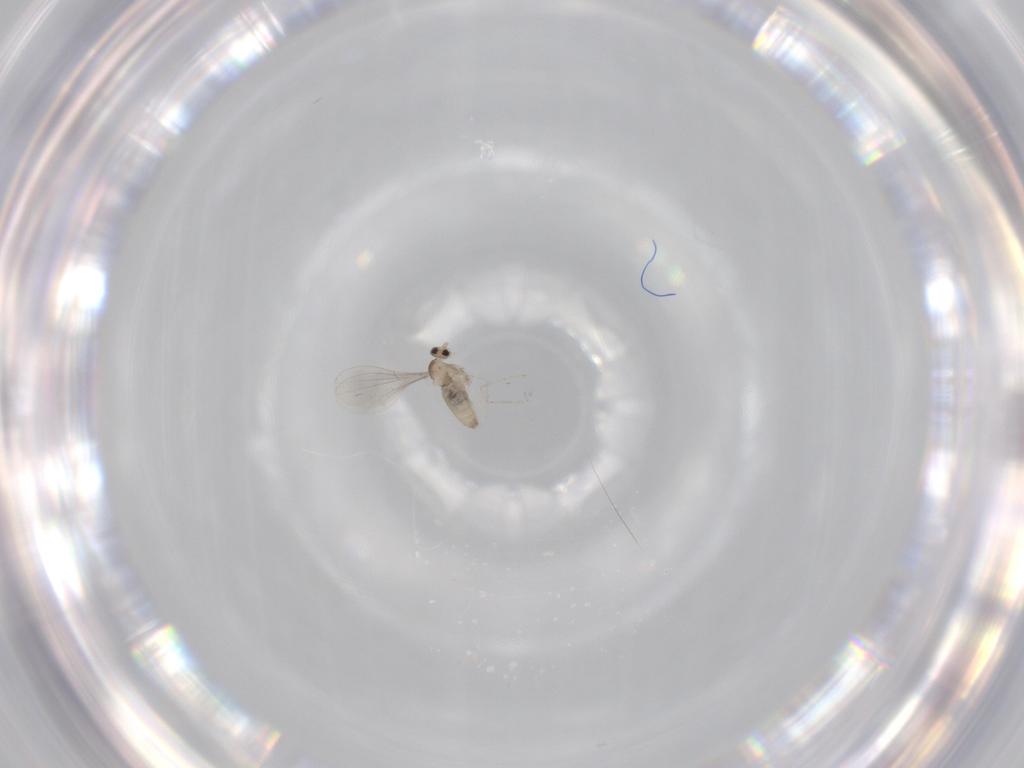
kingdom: Animalia
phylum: Arthropoda
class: Insecta
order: Diptera
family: Cecidomyiidae
